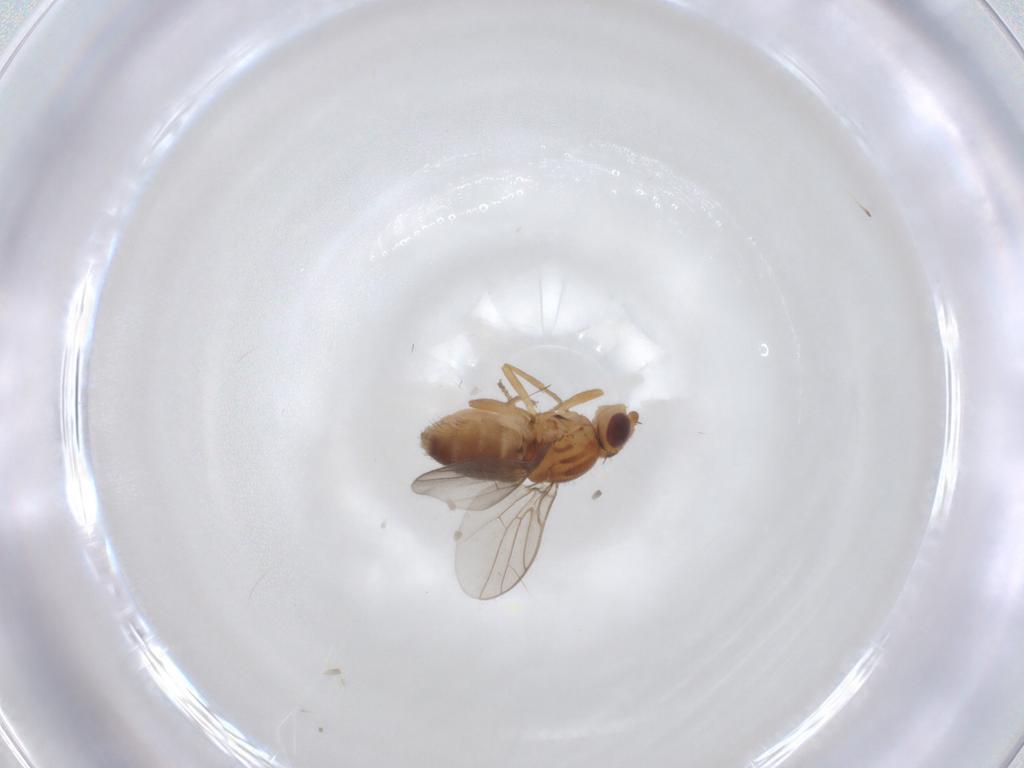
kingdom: Animalia
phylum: Arthropoda
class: Insecta
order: Diptera
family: Chloropidae
